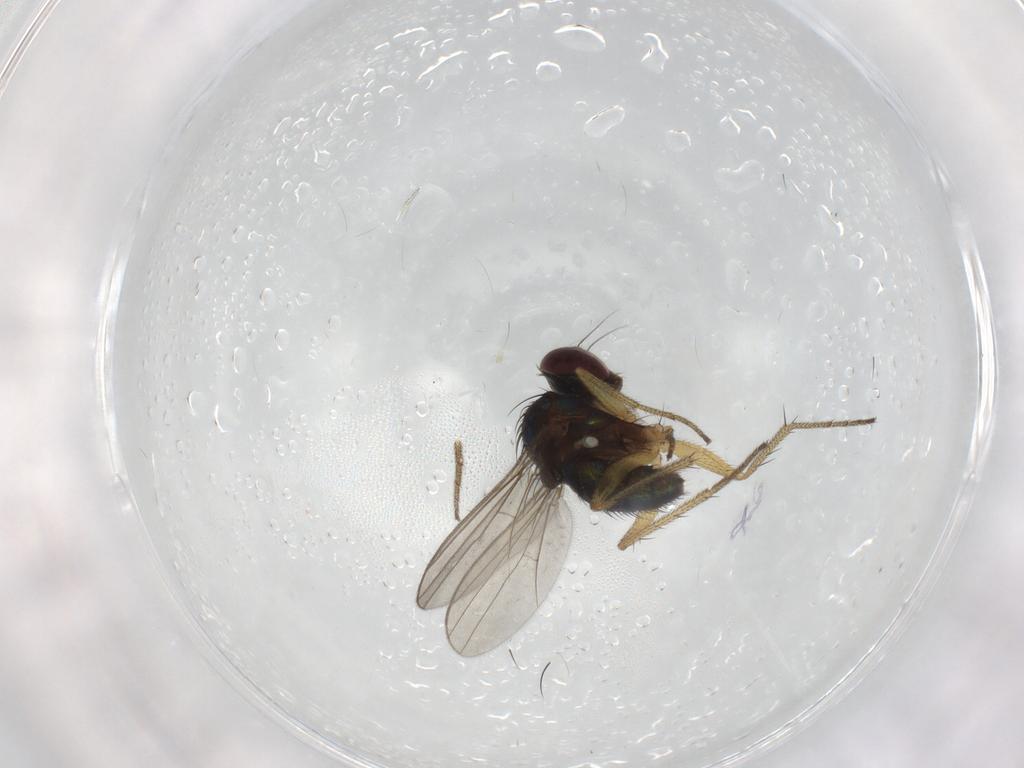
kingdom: Animalia
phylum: Arthropoda
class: Insecta
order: Diptera
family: Dolichopodidae
